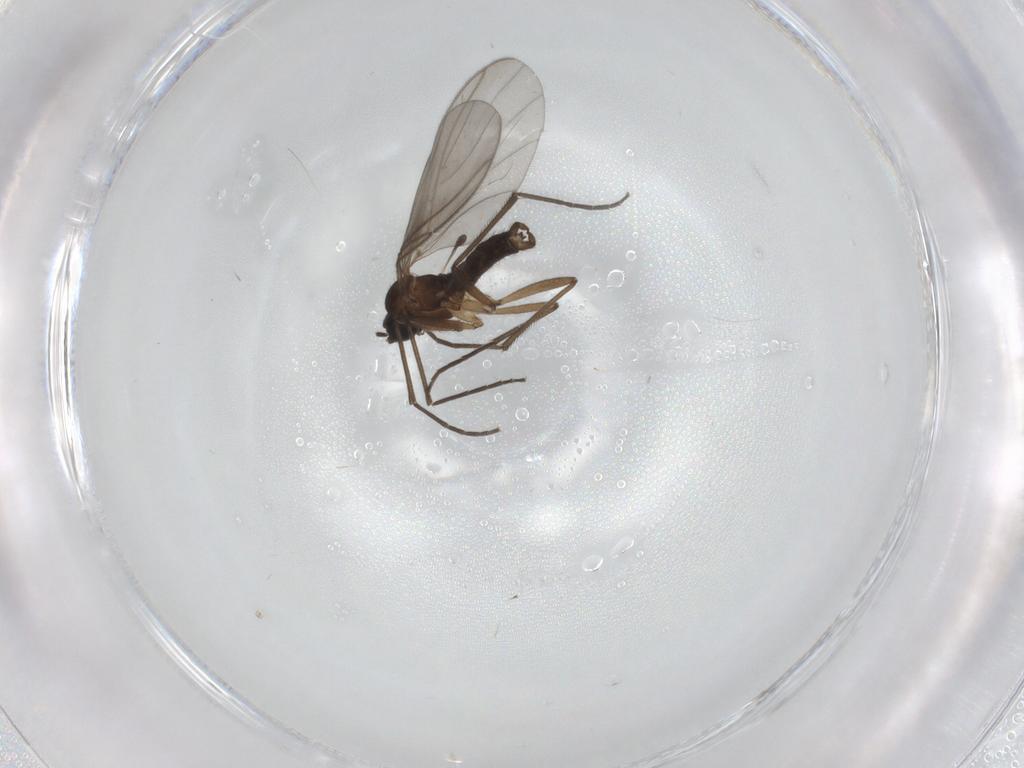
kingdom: Animalia
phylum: Arthropoda
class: Insecta
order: Diptera
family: Sciaridae
